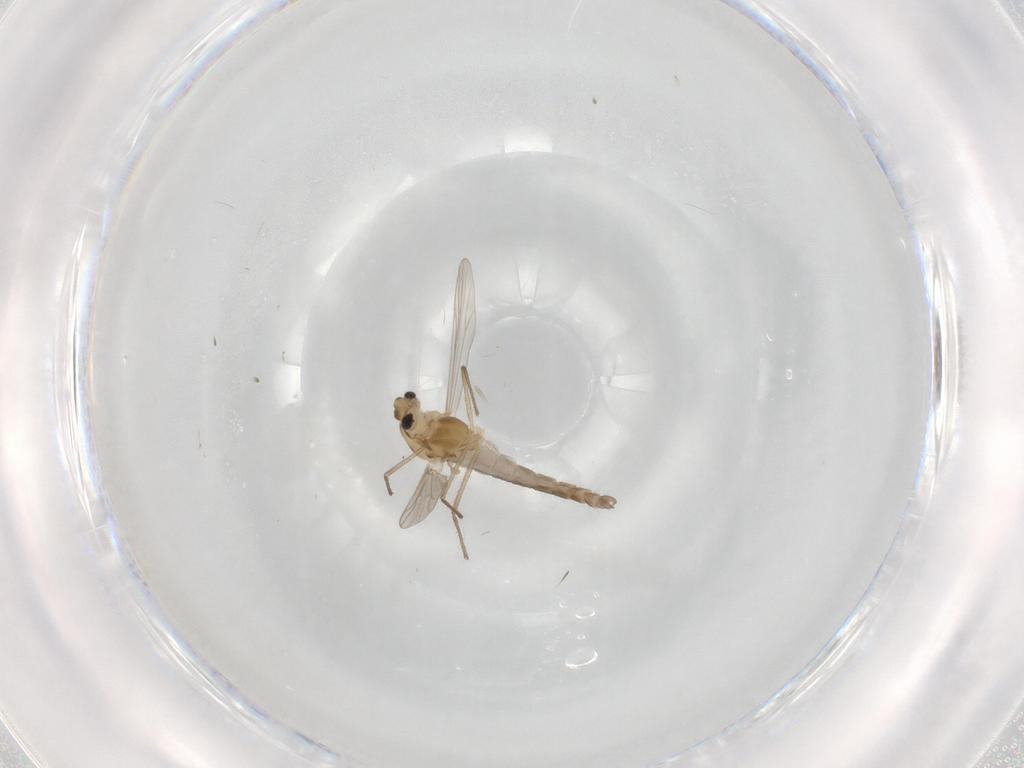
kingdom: Animalia
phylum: Arthropoda
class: Insecta
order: Diptera
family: Chironomidae
